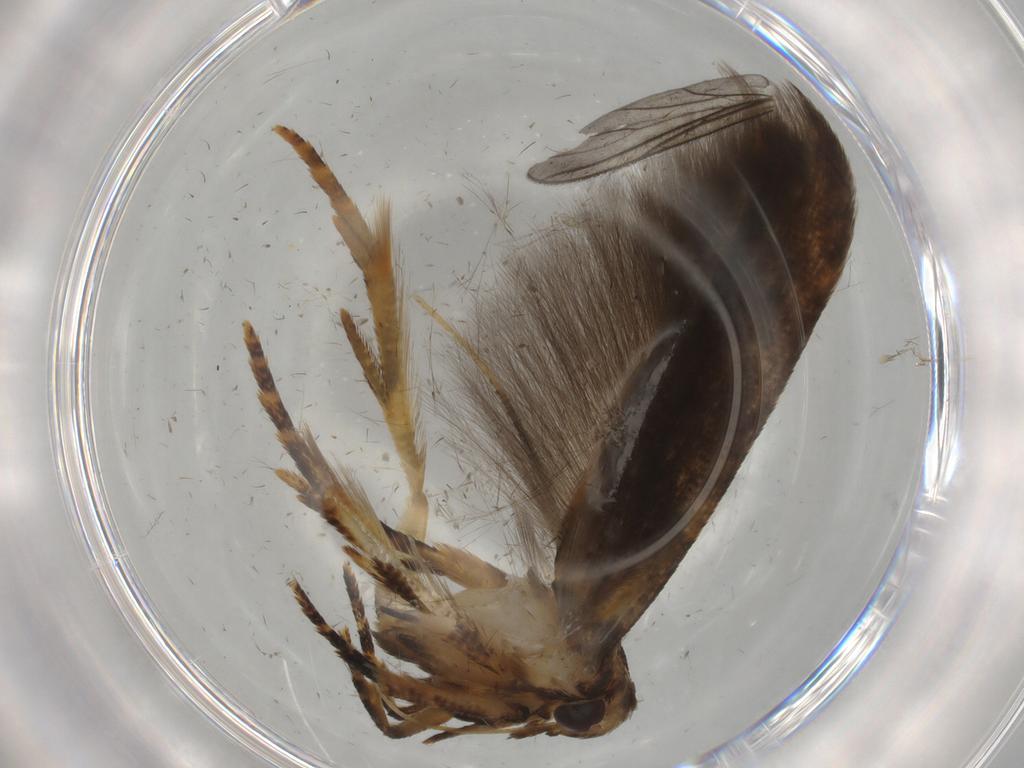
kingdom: Animalia
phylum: Arthropoda
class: Insecta
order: Lepidoptera
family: Cosmopterigidae
